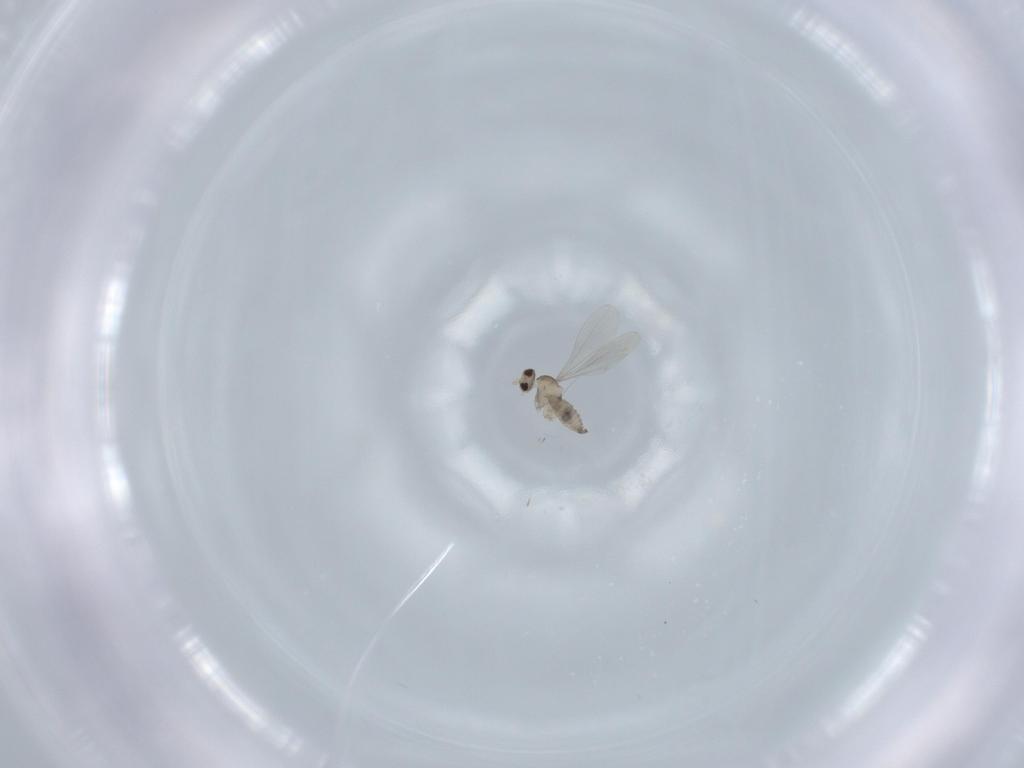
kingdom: Animalia
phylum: Arthropoda
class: Insecta
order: Diptera
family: Cecidomyiidae
